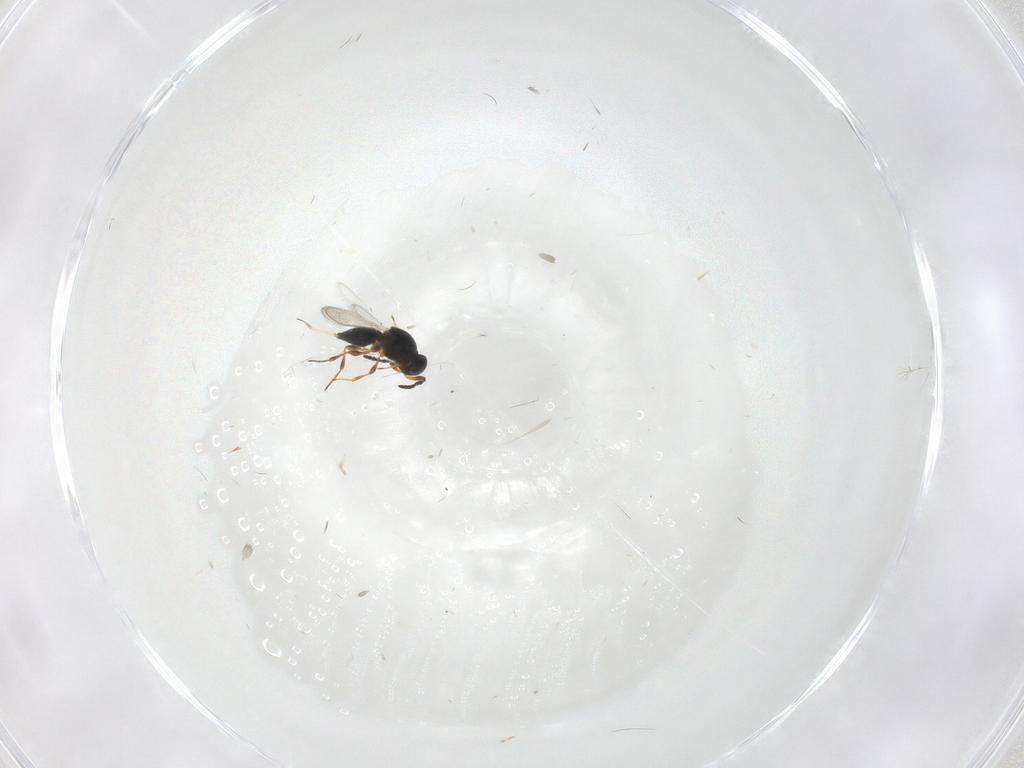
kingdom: Animalia
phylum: Arthropoda
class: Insecta
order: Hymenoptera
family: Platygastridae
